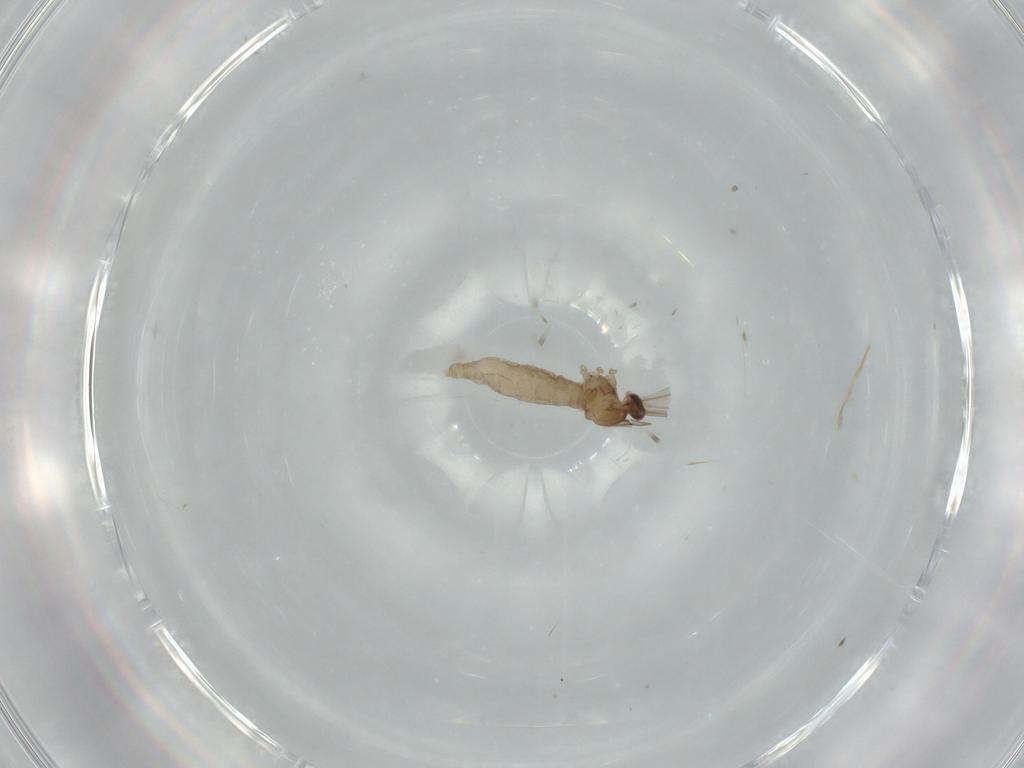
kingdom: Animalia
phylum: Arthropoda
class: Insecta
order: Diptera
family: Cecidomyiidae
